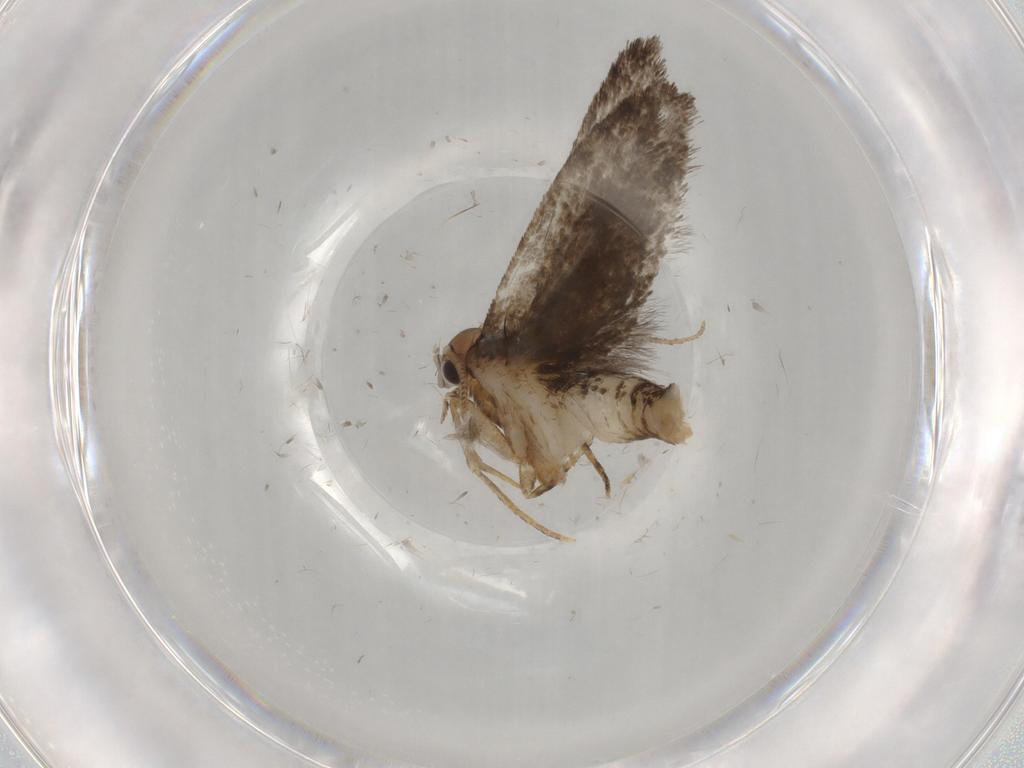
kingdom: Animalia
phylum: Arthropoda
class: Insecta
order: Lepidoptera
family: Tineidae
